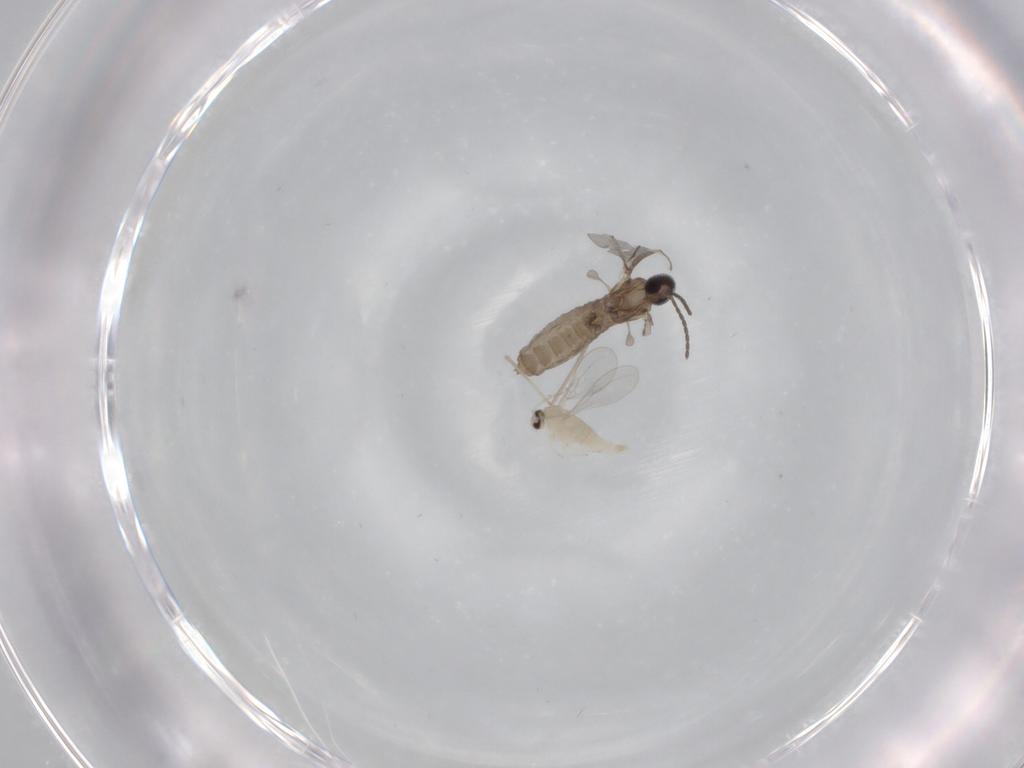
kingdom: Animalia
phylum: Arthropoda
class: Insecta
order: Diptera
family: Cecidomyiidae
